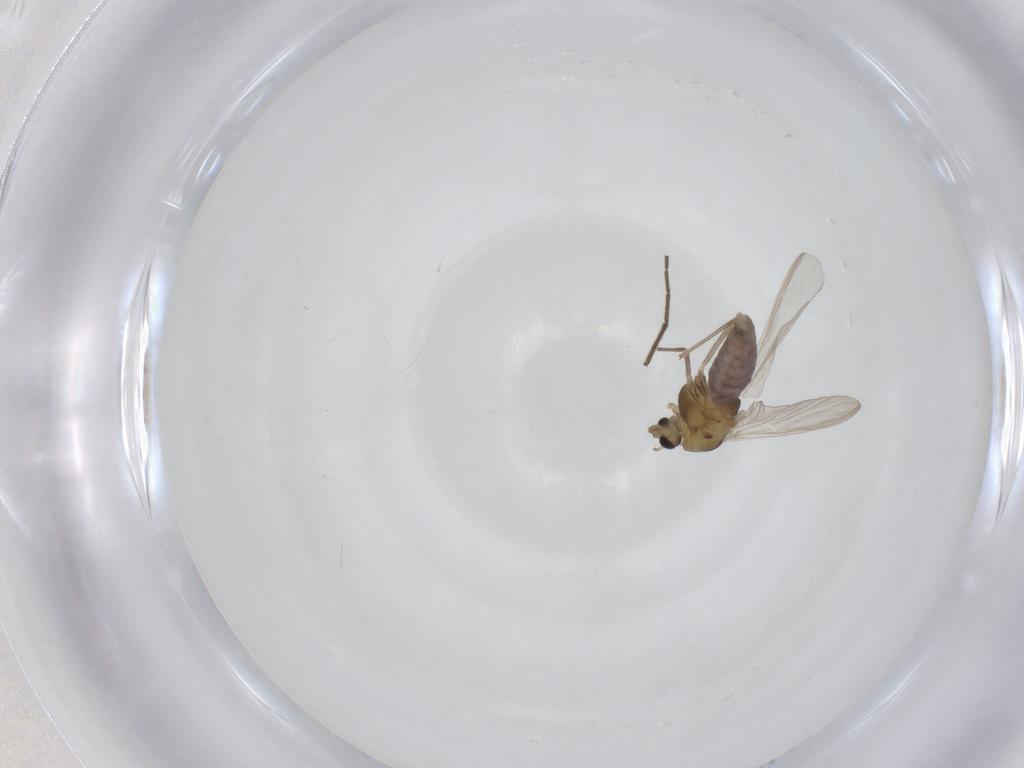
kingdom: Animalia
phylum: Arthropoda
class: Insecta
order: Diptera
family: Chironomidae
